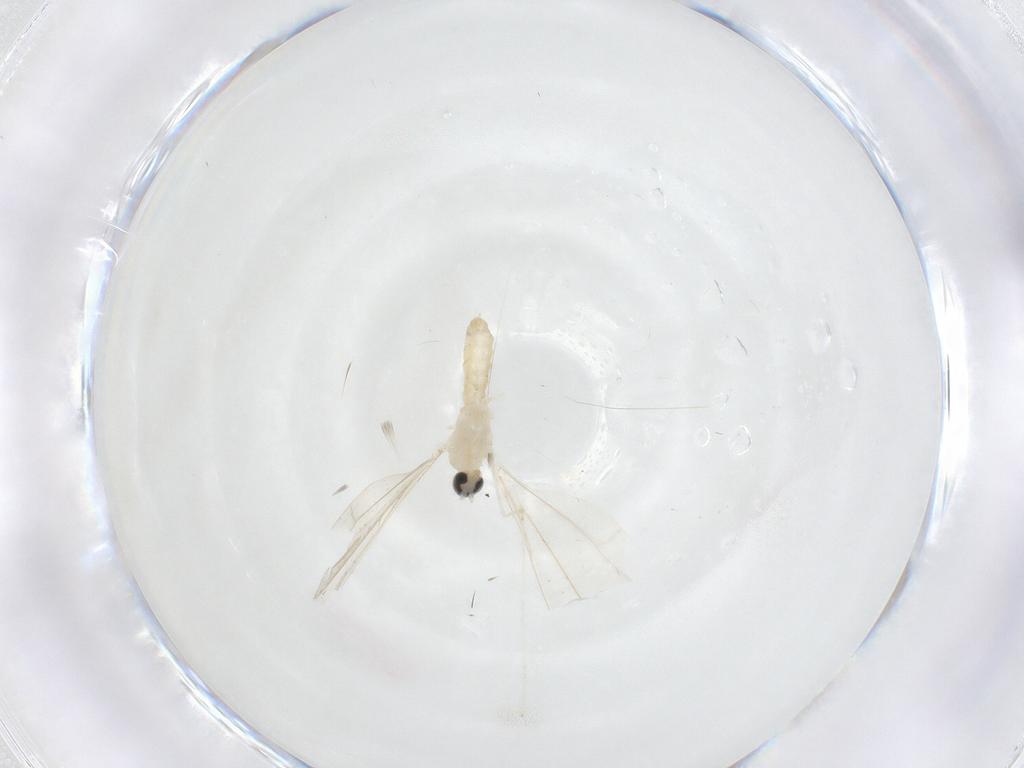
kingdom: Animalia
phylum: Arthropoda
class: Insecta
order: Diptera
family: Cecidomyiidae
